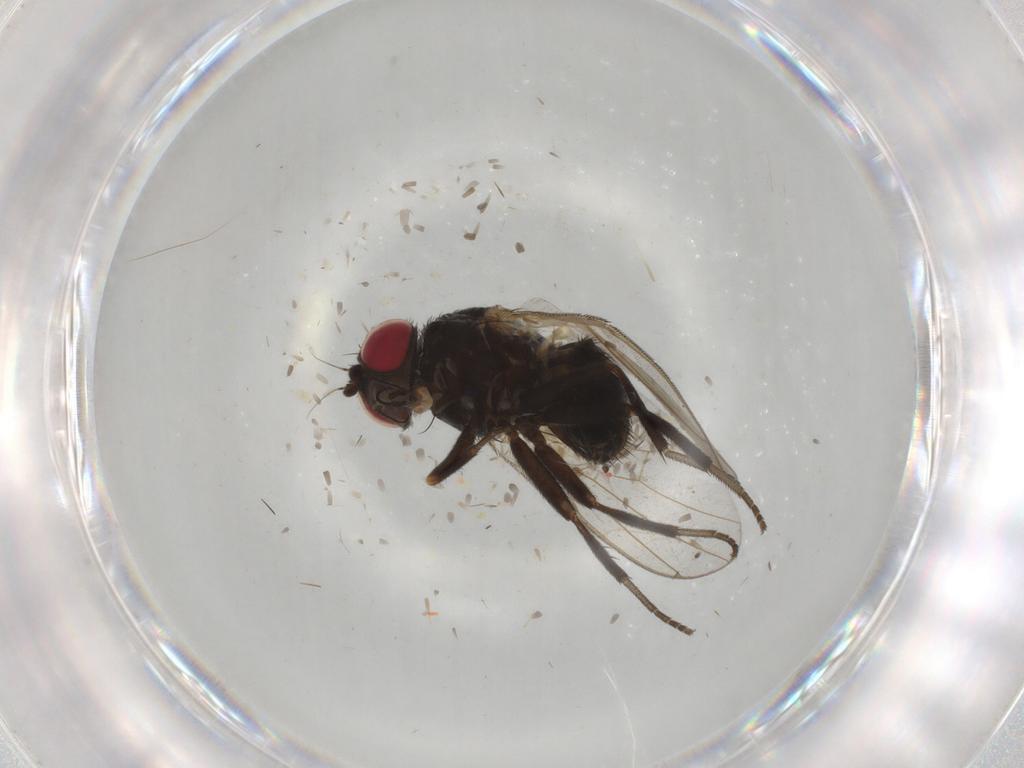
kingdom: Animalia
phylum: Arthropoda
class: Insecta
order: Diptera
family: Agromyzidae
